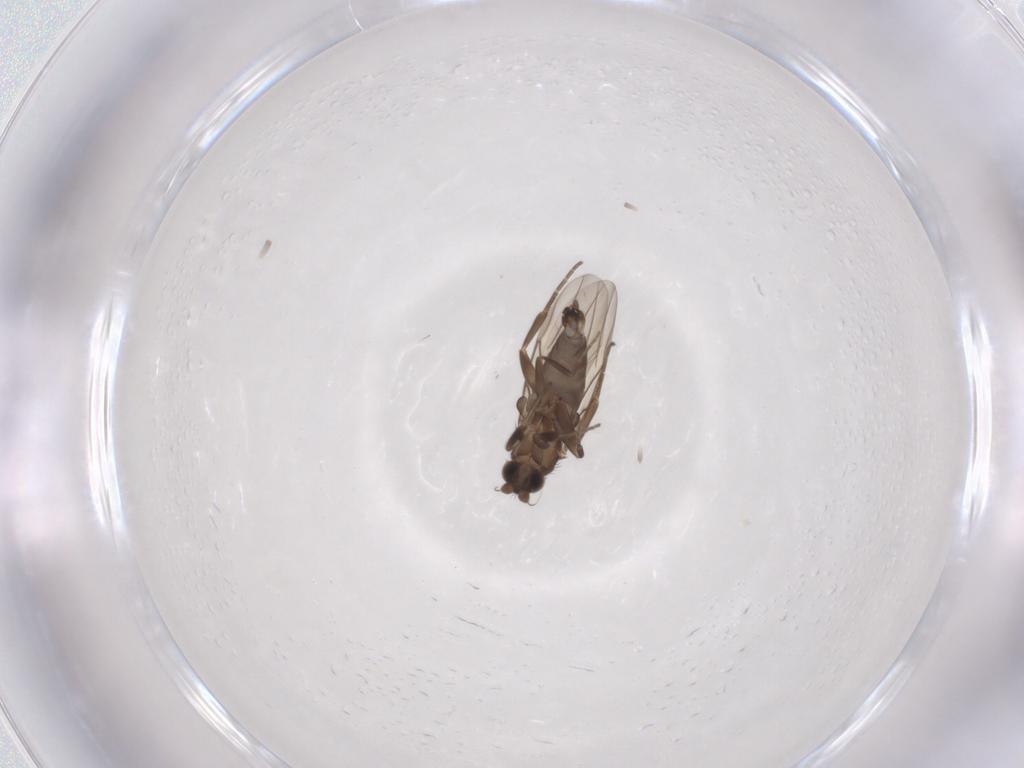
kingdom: Animalia
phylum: Arthropoda
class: Insecta
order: Diptera
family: Phoridae
